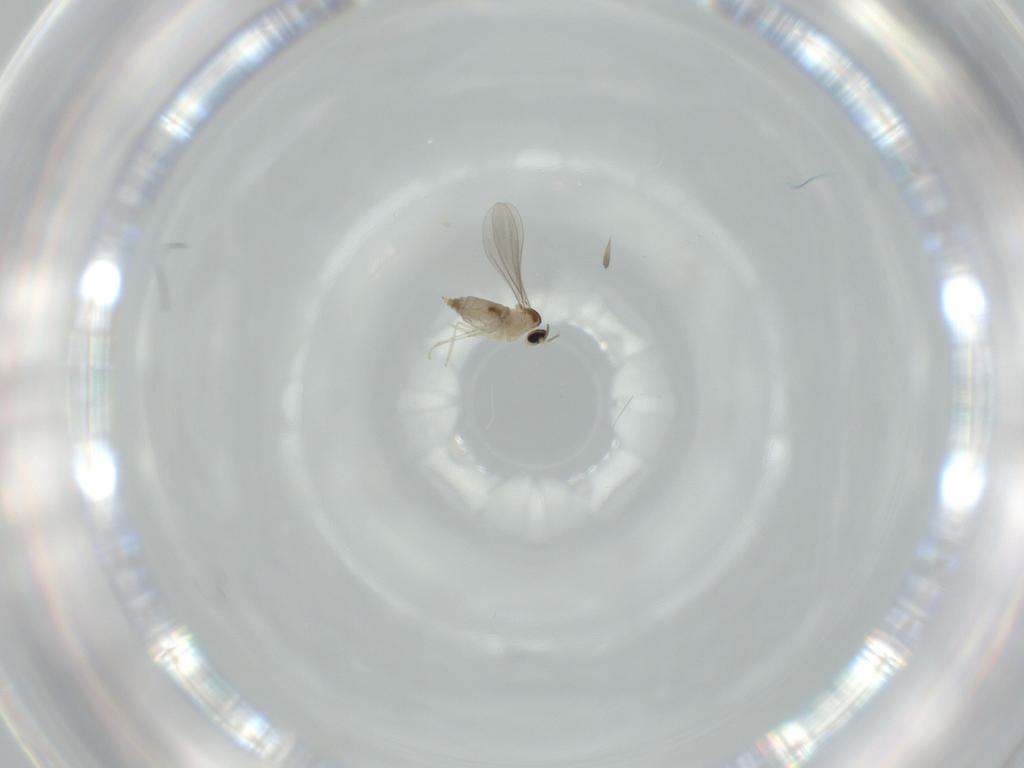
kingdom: Animalia
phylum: Arthropoda
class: Insecta
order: Diptera
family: Cecidomyiidae
